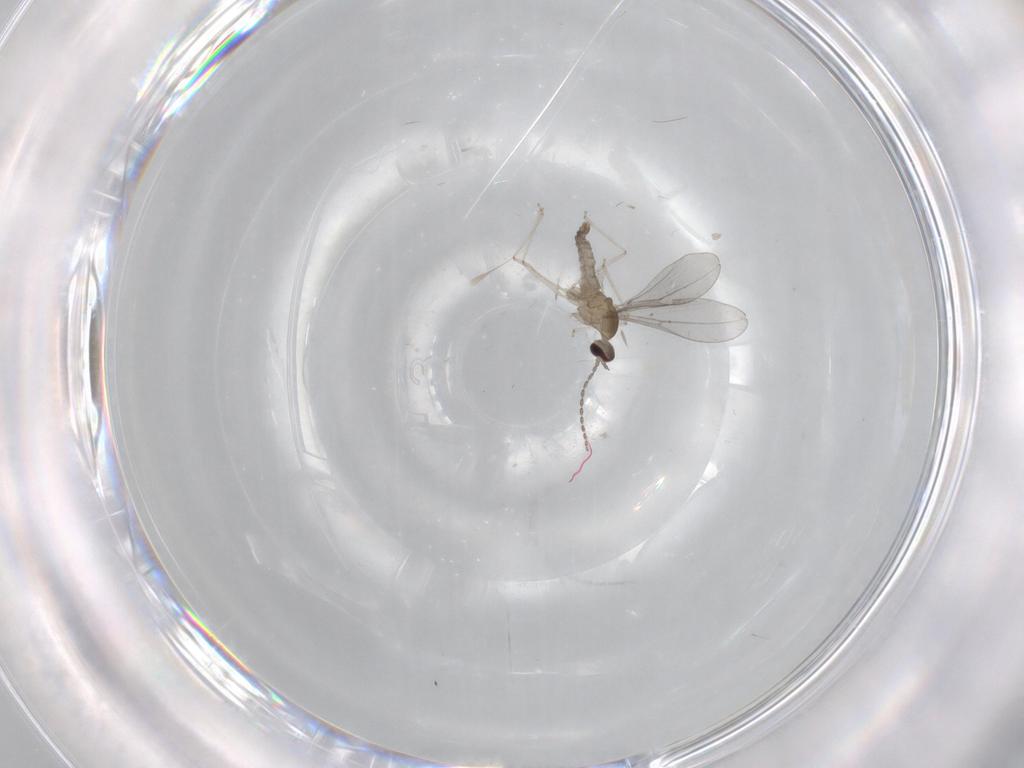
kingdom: Animalia
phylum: Arthropoda
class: Insecta
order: Diptera
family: Cecidomyiidae
